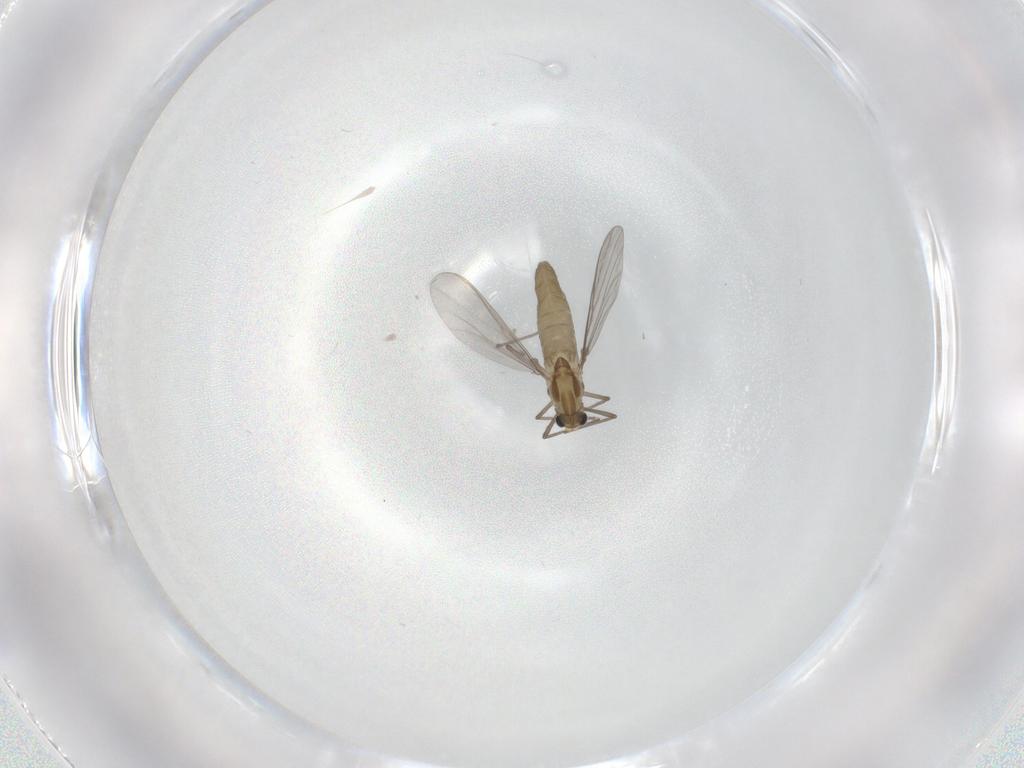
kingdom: Animalia
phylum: Arthropoda
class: Insecta
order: Diptera
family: Chironomidae
